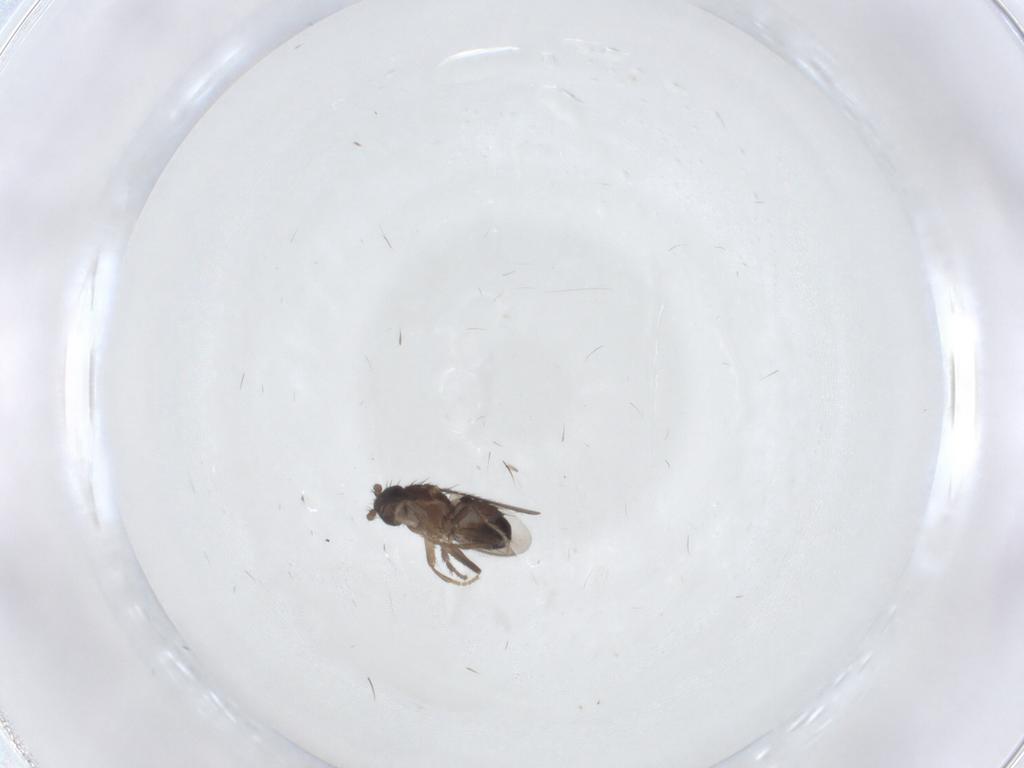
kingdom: Animalia
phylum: Arthropoda
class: Insecta
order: Diptera
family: Sphaeroceridae
